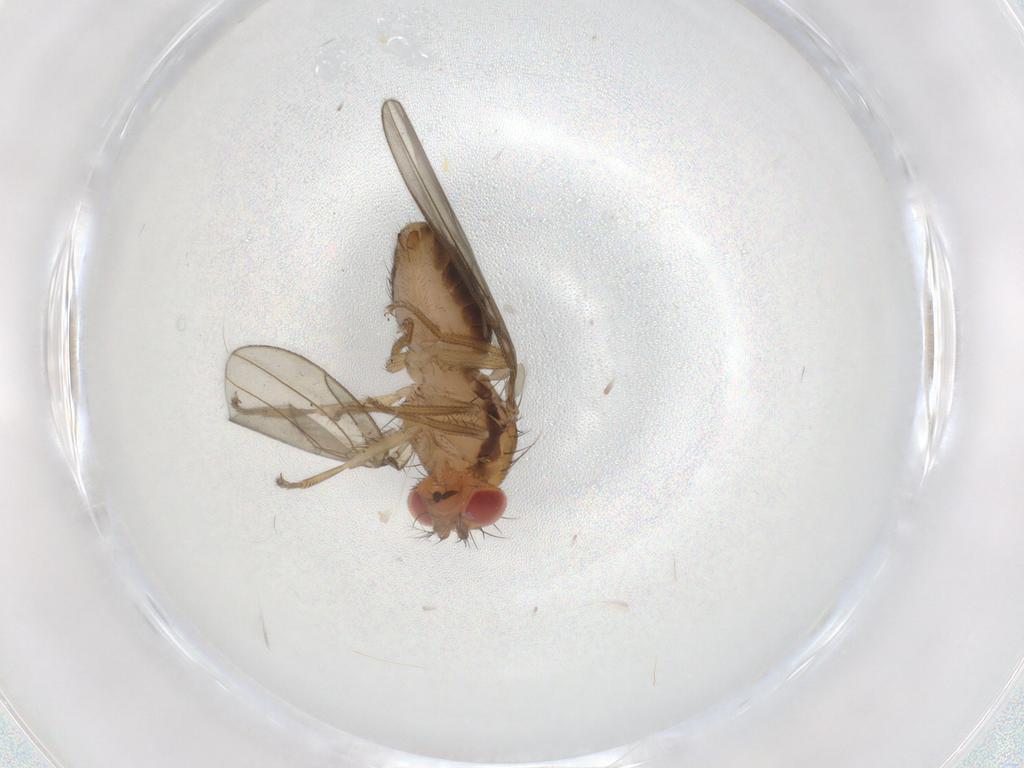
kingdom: Animalia
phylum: Arthropoda
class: Insecta
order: Diptera
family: Drosophilidae
